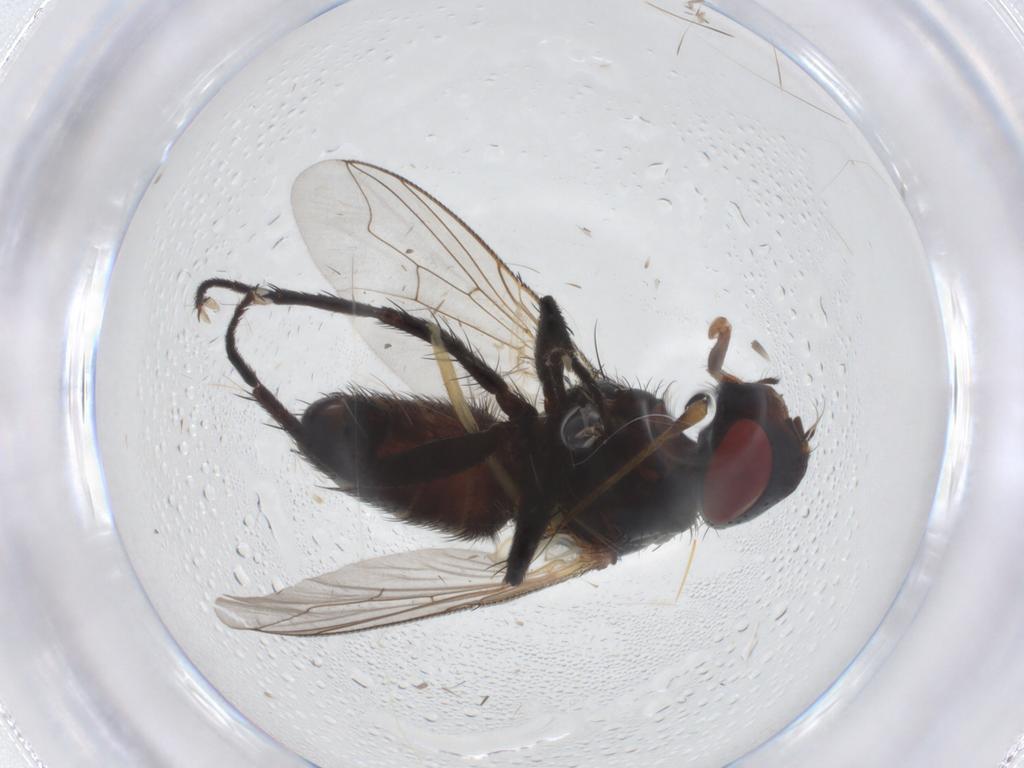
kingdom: Animalia
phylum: Arthropoda
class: Insecta
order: Diptera
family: Sarcophagidae
